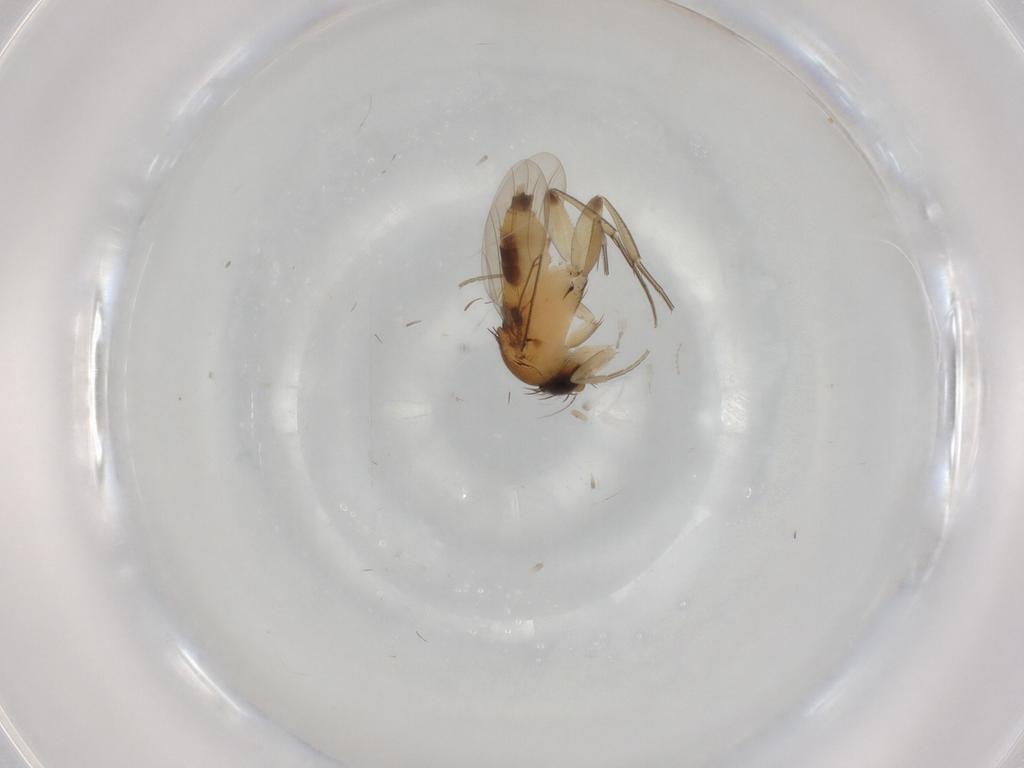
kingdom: Animalia
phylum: Arthropoda
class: Insecta
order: Diptera
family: Phoridae
